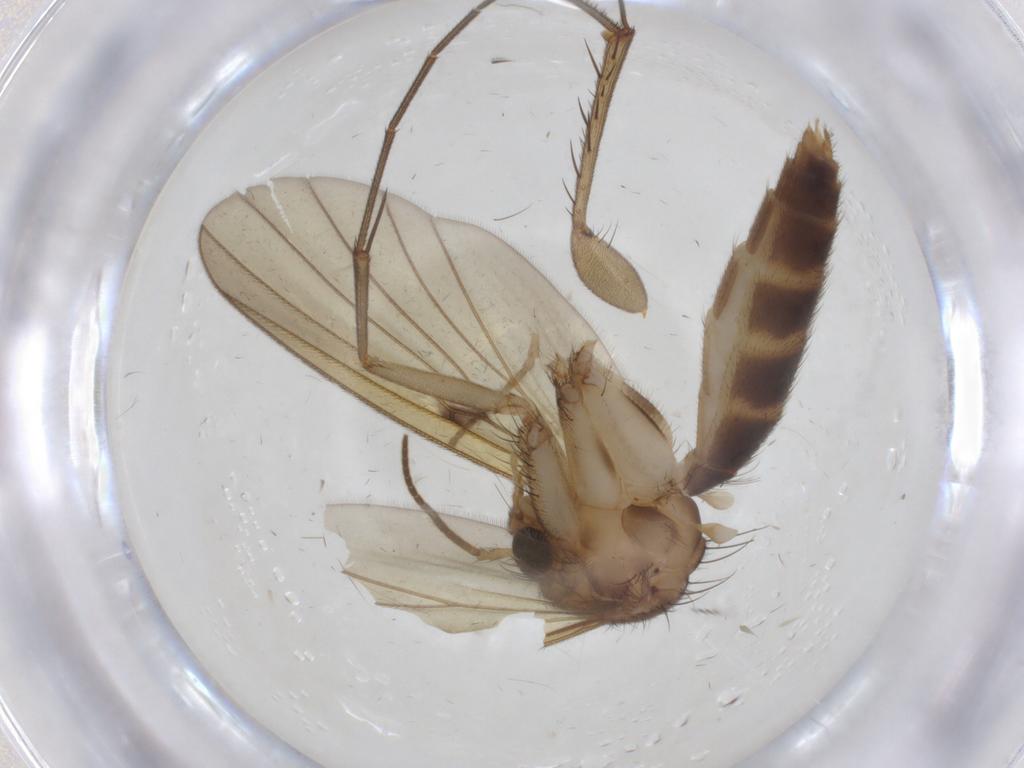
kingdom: Animalia
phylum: Arthropoda
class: Insecta
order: Diptera
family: Mycetophilidae
